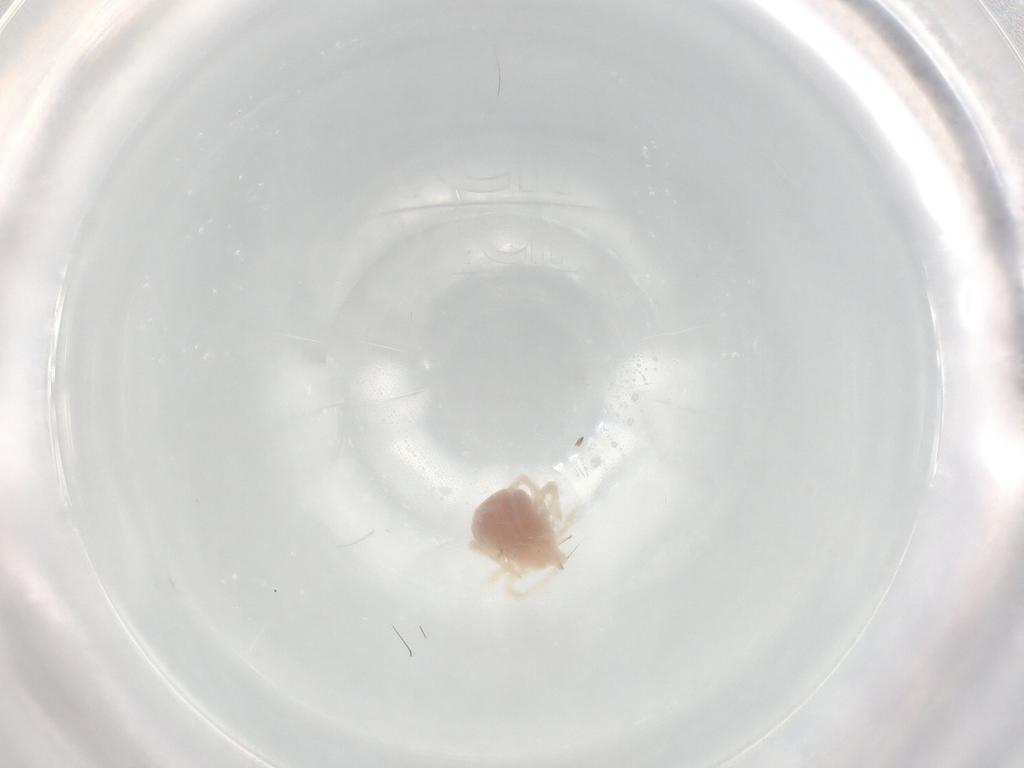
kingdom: Animalia
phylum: Arthropoda
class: Arachnida
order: Trombidiformes
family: Anystidae
